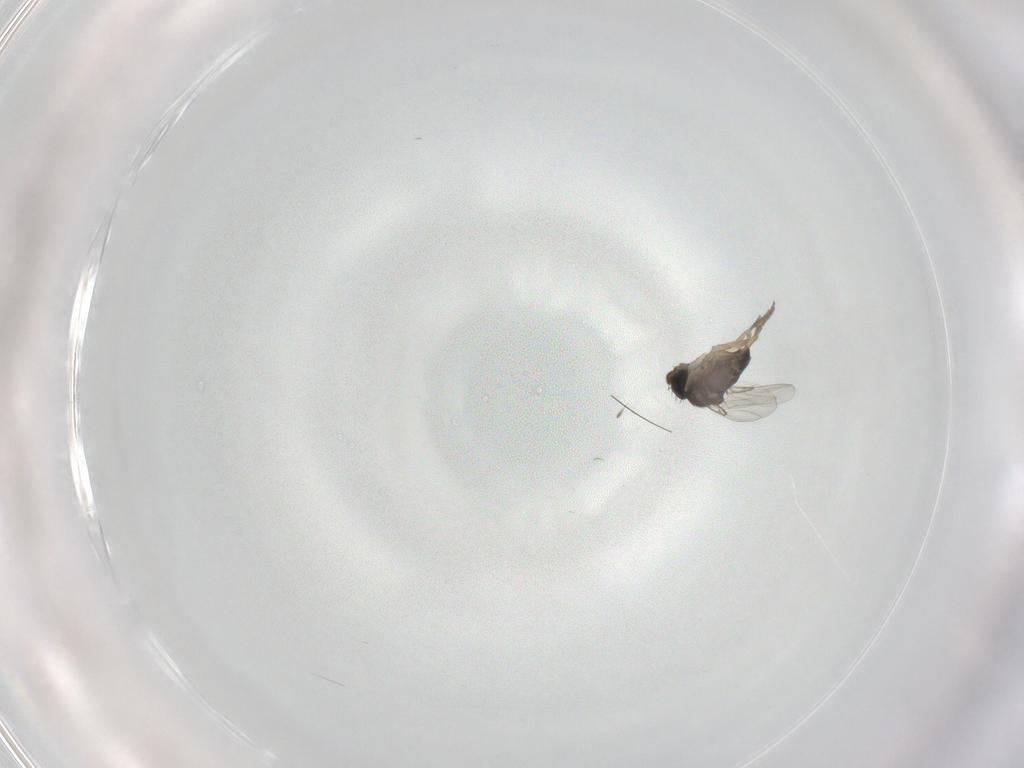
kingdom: Animalia
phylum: Arthropoda
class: Insecta
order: Diptera
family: Phoridae
